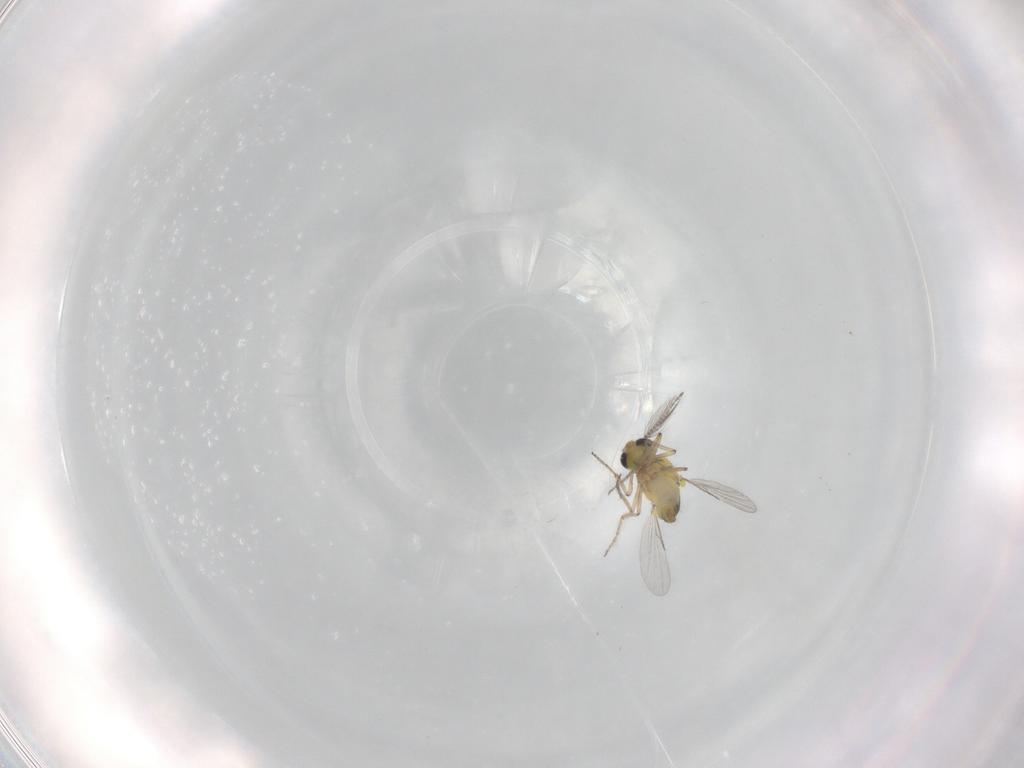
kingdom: Animalia
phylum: Arthropoda
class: Insecta
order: Diptera
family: Ceratopogonidae
